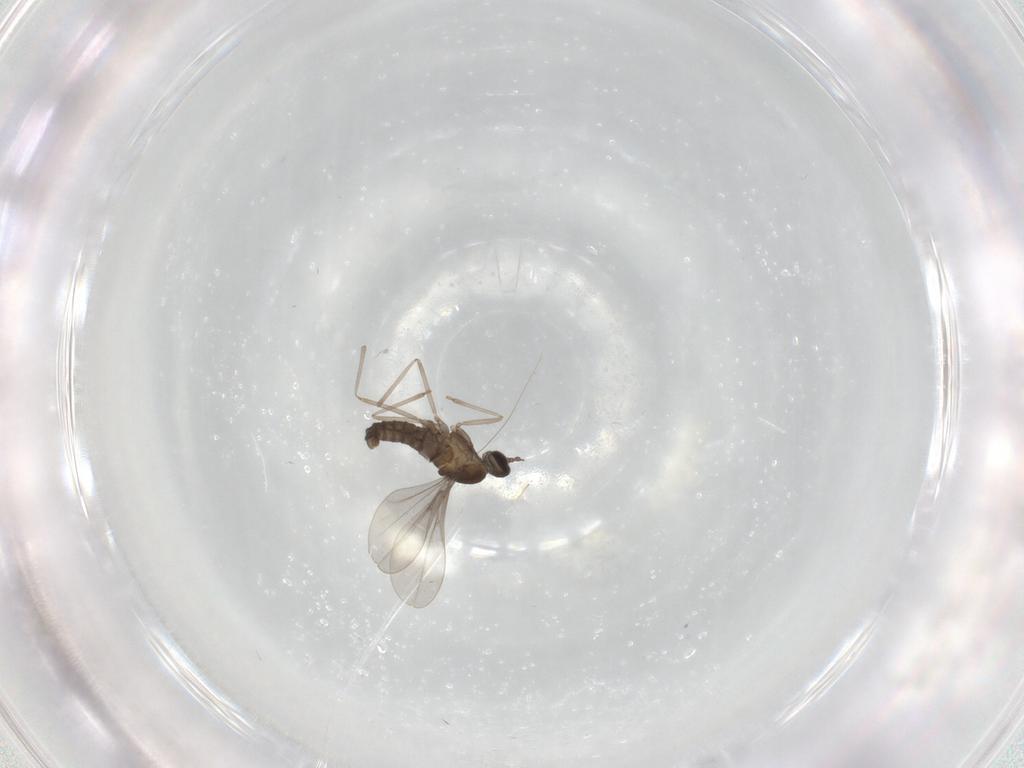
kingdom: Animalia
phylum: Arthropoda
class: Insecta
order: Diptera
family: Cecidomyiidae
